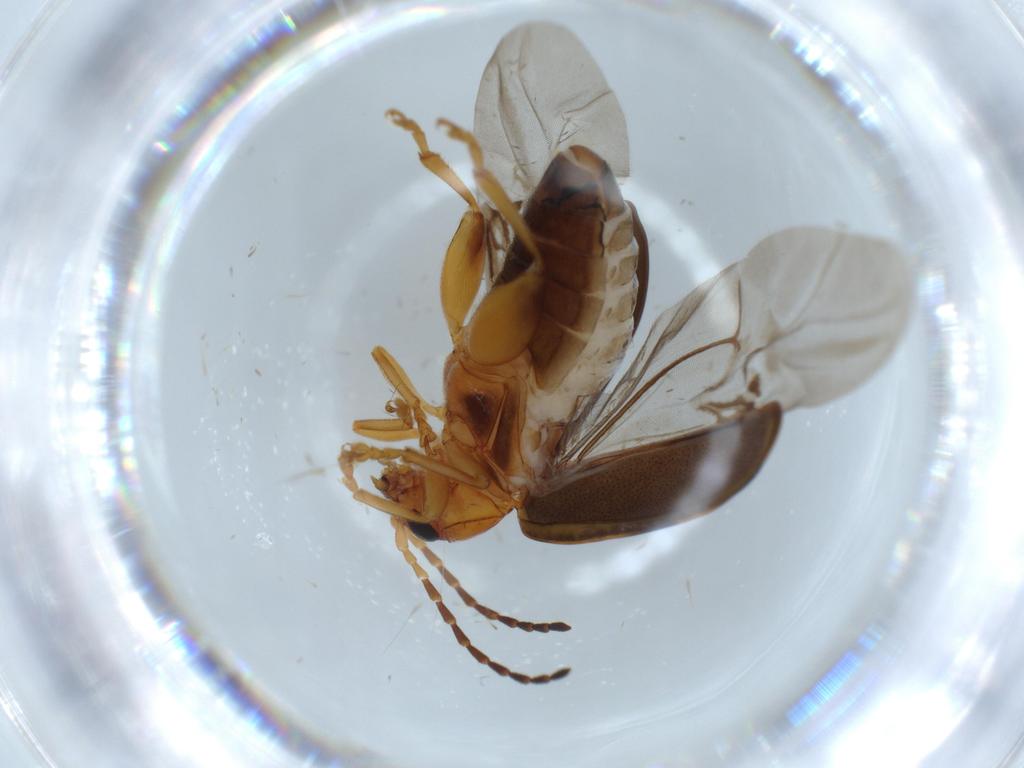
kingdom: Animalia
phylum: Arthropoda
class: Insecta
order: Coleoptera
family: Chrysomelidae
